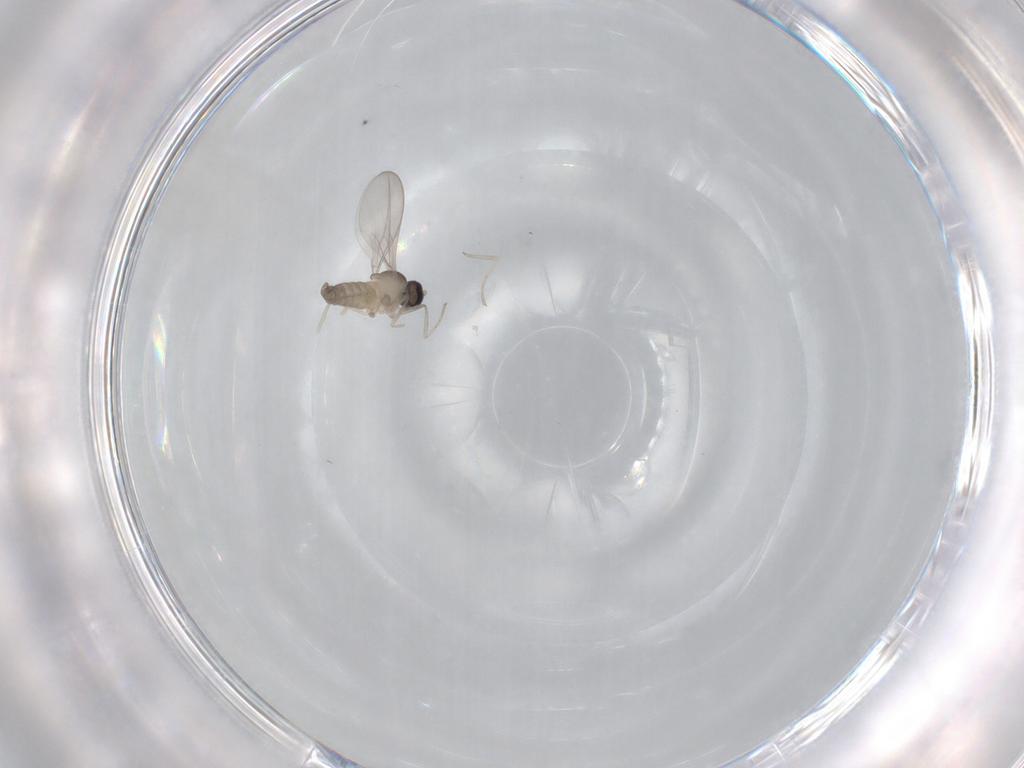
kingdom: Animalia
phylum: Arthropoda
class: Insecta
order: Diptera
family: Cecidomyiidae
